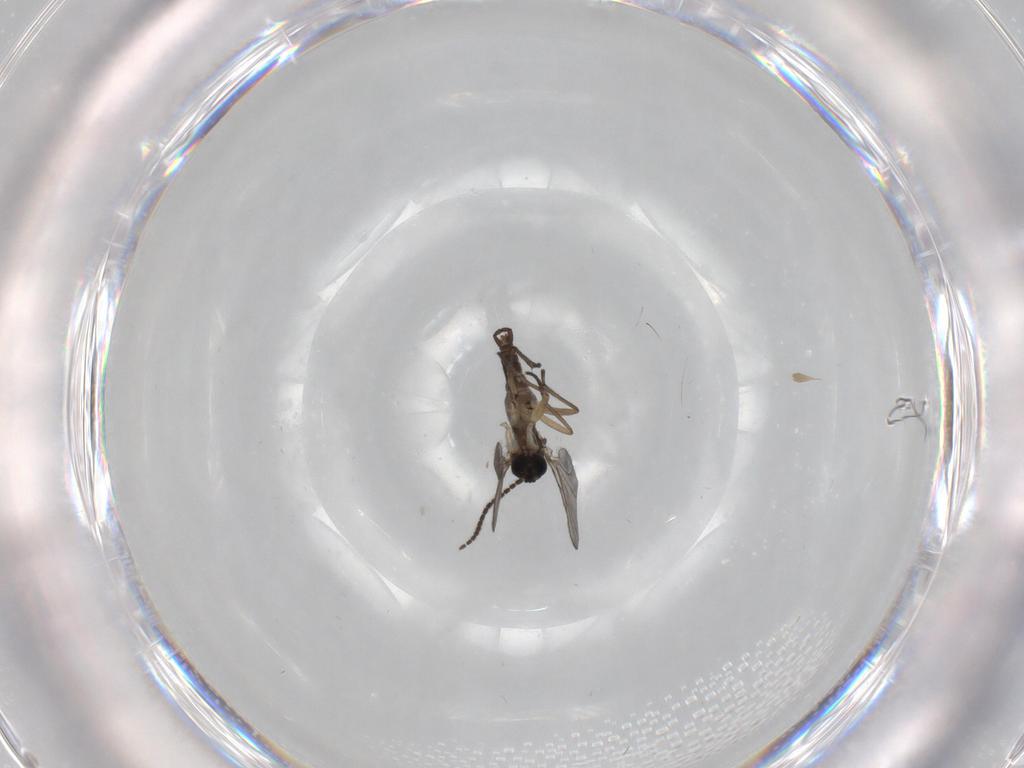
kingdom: Animalia
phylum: Arthropoda
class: Insecta
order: Diptera
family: Sciaridae
